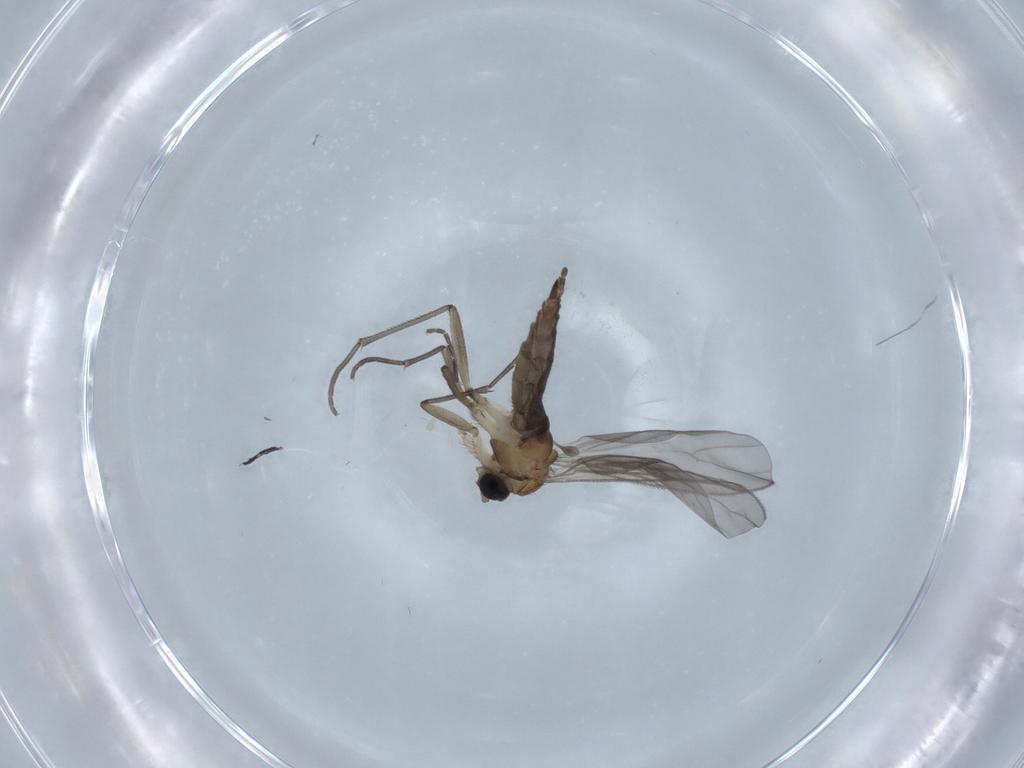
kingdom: Animalia
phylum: Arthropoda
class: Insecta
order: Diptera
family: Sciaridae
